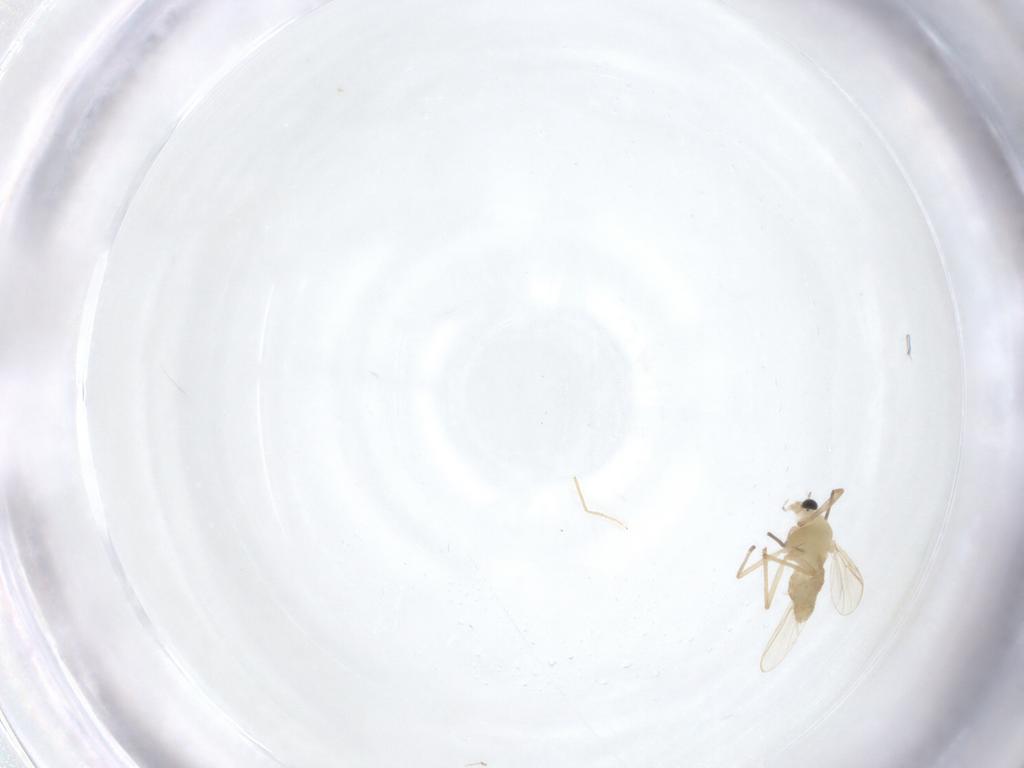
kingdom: Animalia
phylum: Arthropoda
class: Insecta
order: Diptera
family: Chironomidae
